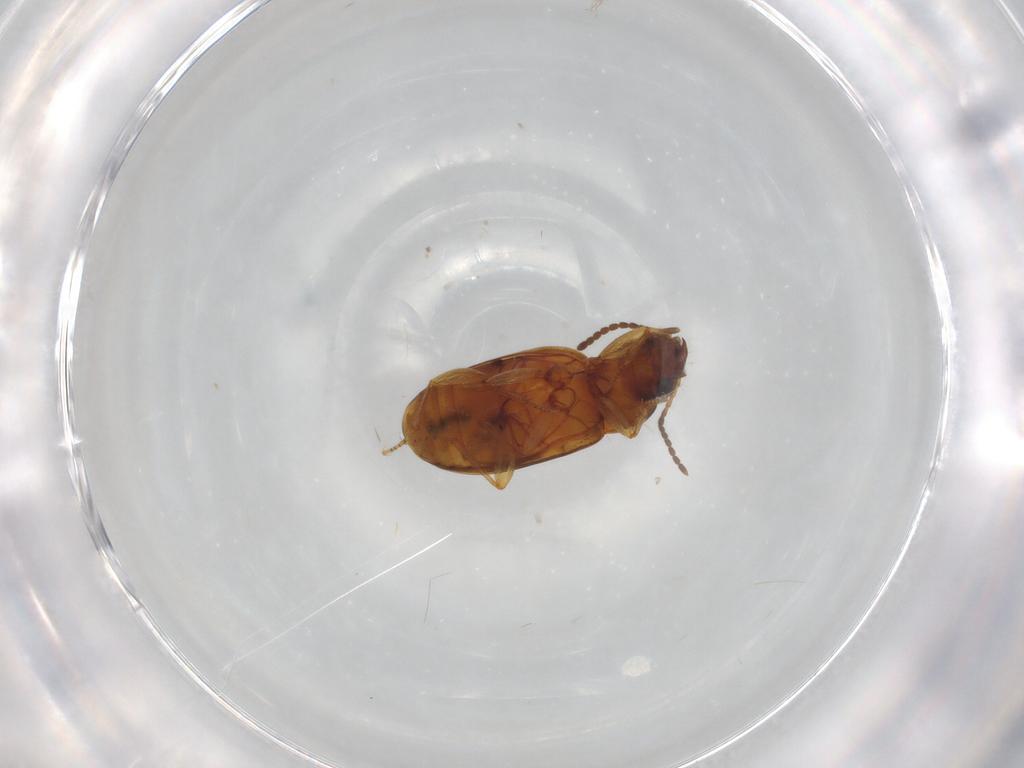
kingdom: Animalia
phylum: Arthropoda
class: Insecta
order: Coleoptera
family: Carabidae
